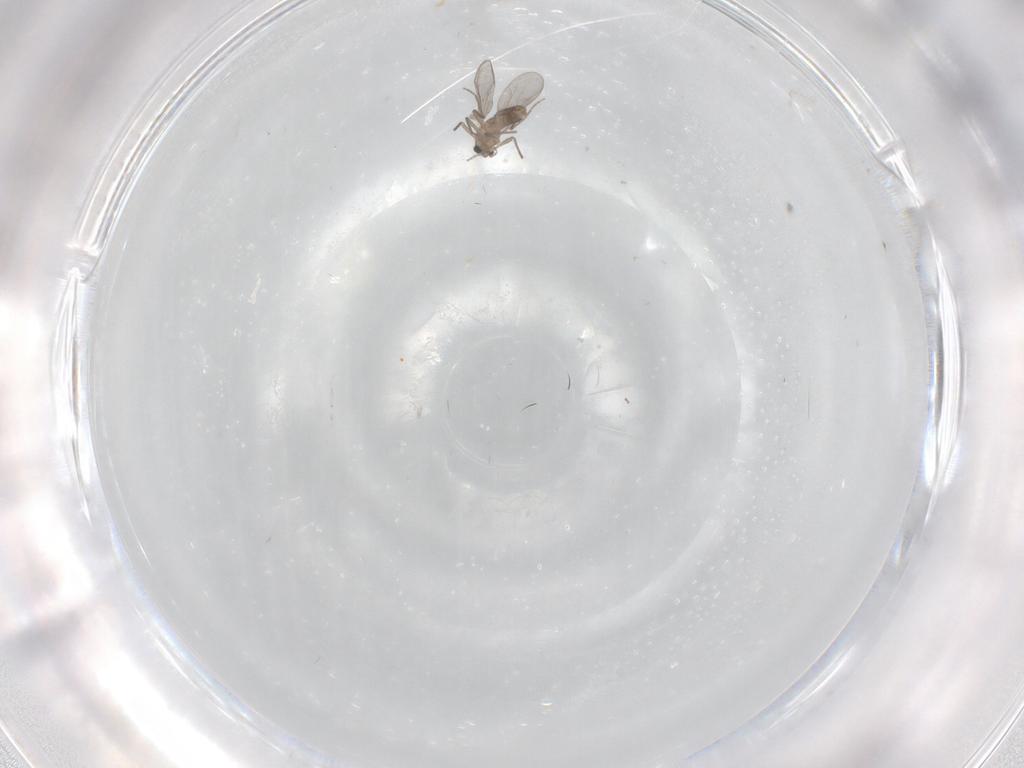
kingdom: Animalia
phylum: Arthropoda
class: Insecta
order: Diptera
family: Chironomidae
